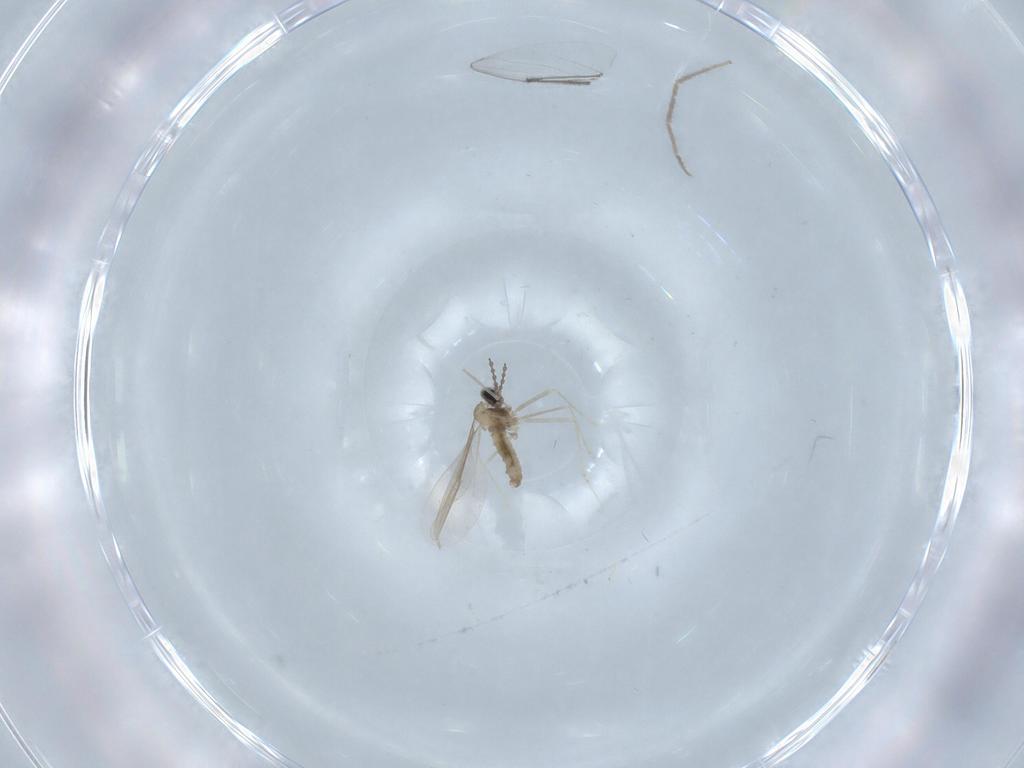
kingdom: Animalia
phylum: Arthropoda
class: Insecta
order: Diptera
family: Cecidomyiidae
